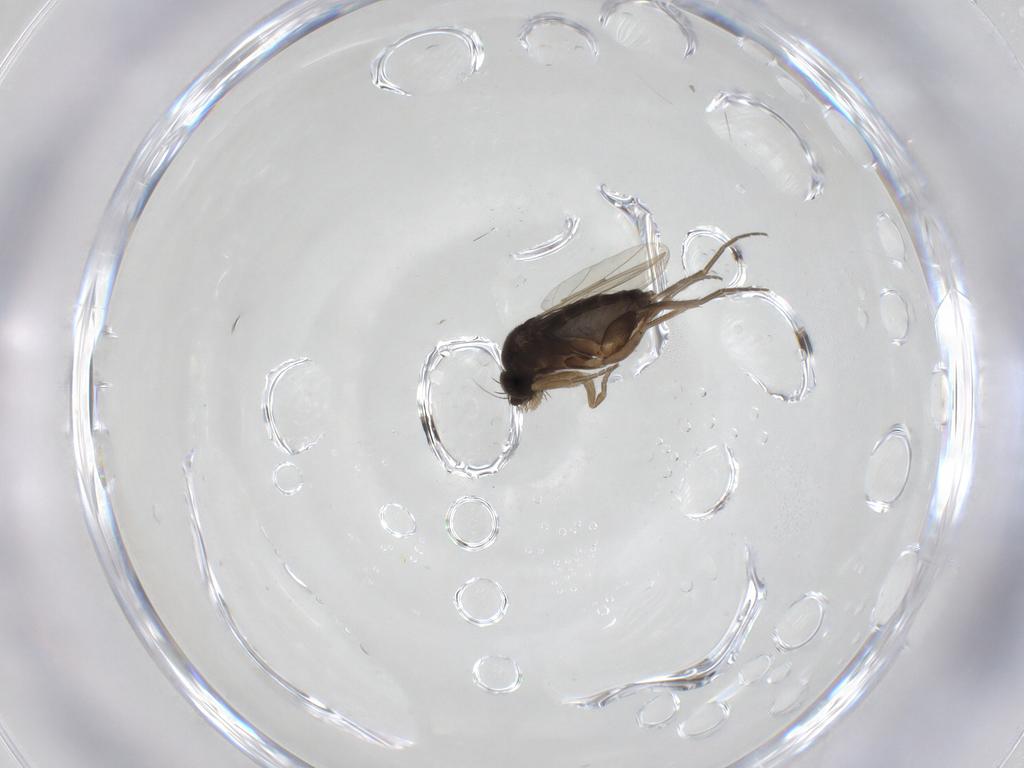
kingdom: Animalia
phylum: Arthropoda
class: Insecta
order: Diptera
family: Phoridae
